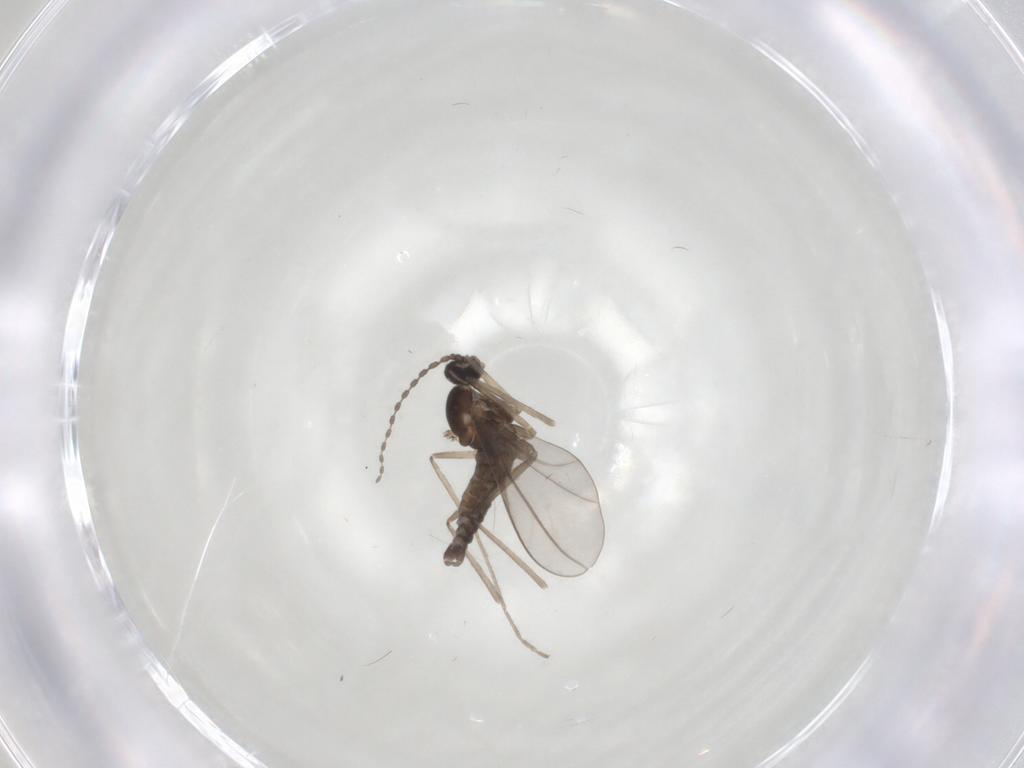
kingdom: Animalia
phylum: Arthropoda
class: Insecta
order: Diptera
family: Cecidomyiidae
